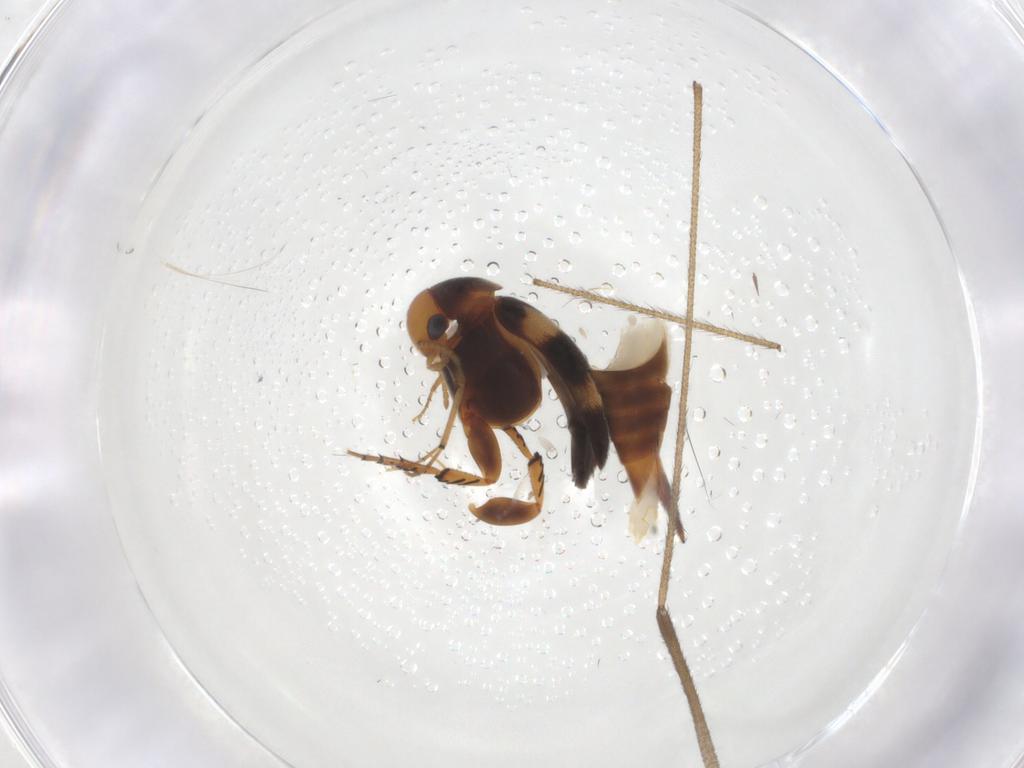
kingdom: Animalia
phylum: Arthropoda
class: Insecta
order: Coleoptera
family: Mordellidae
